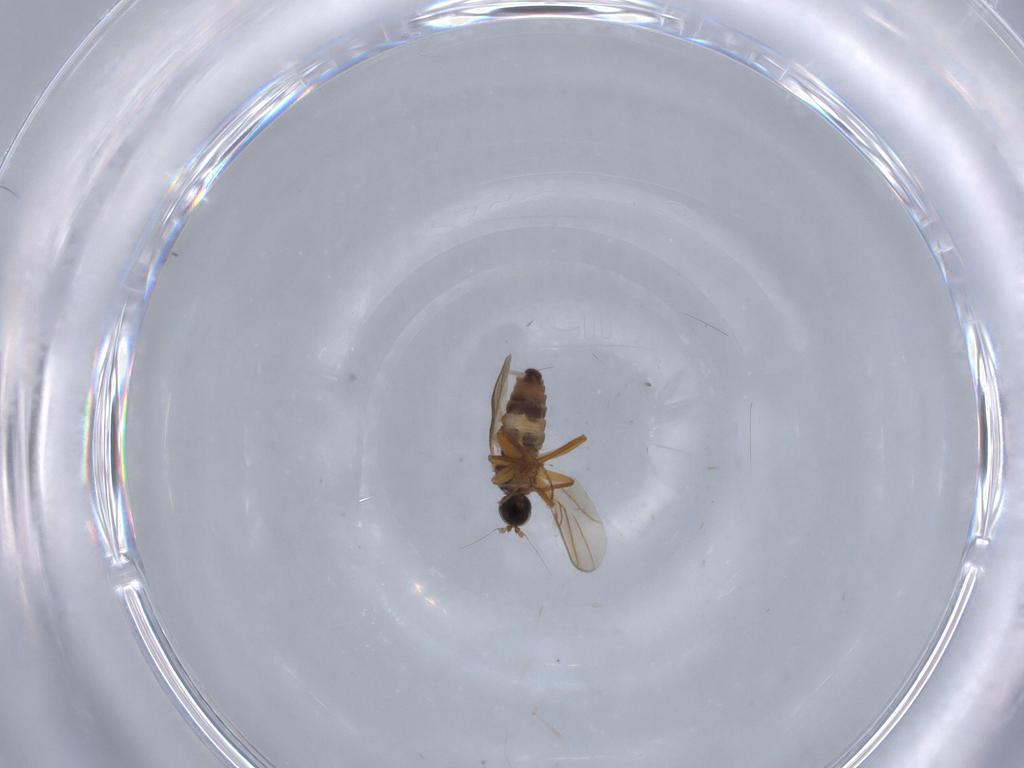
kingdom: Animalia
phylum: Arthropoda
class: Insecta
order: Diptera
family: Hybotidae
